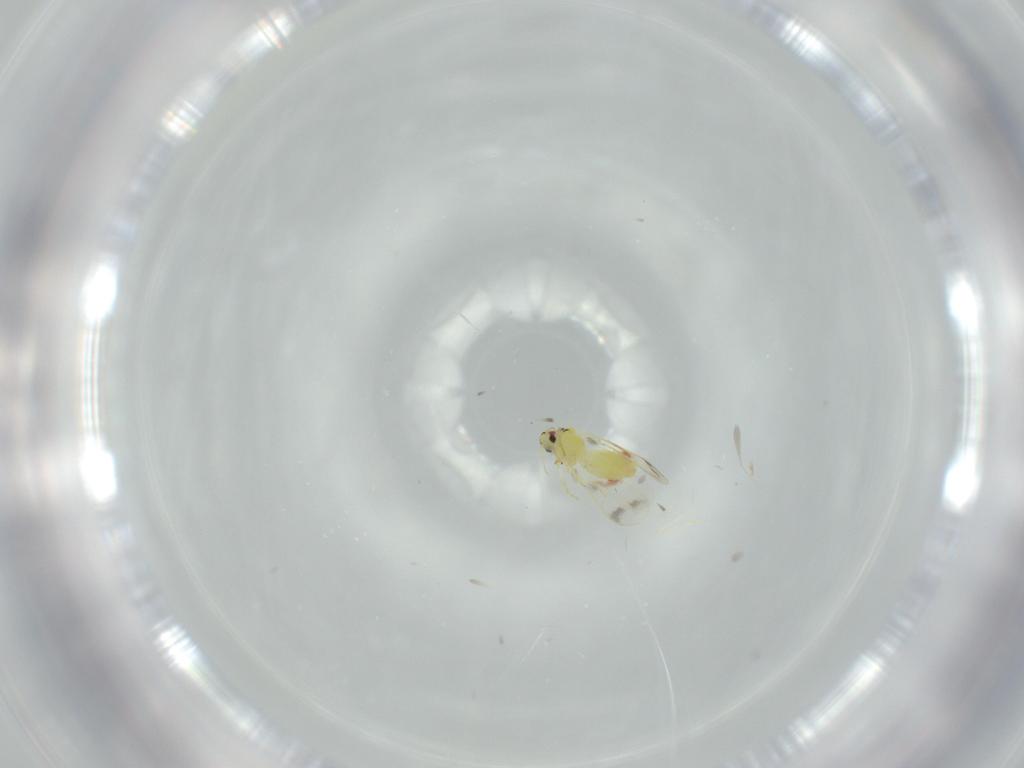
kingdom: Animalia
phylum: Arthropoda
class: Insecta
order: Hemiptera
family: Aleyrodidae
